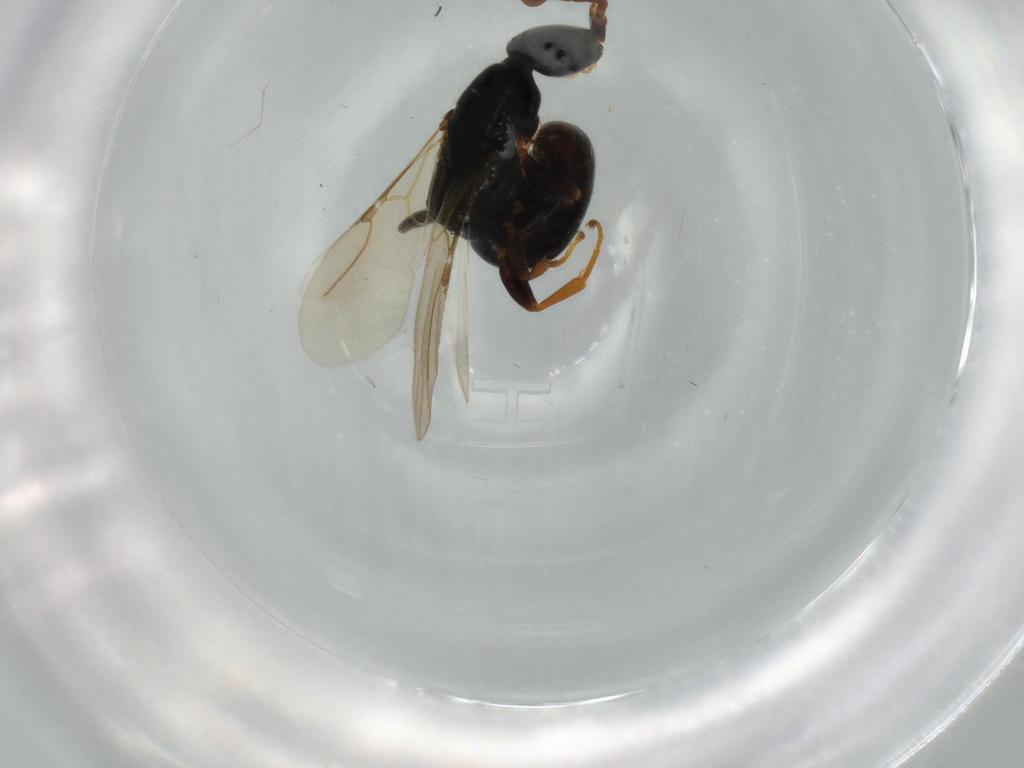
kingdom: Animalia
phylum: Arthropoda
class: Insecta
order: Hymenoptera
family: Bethylidae
